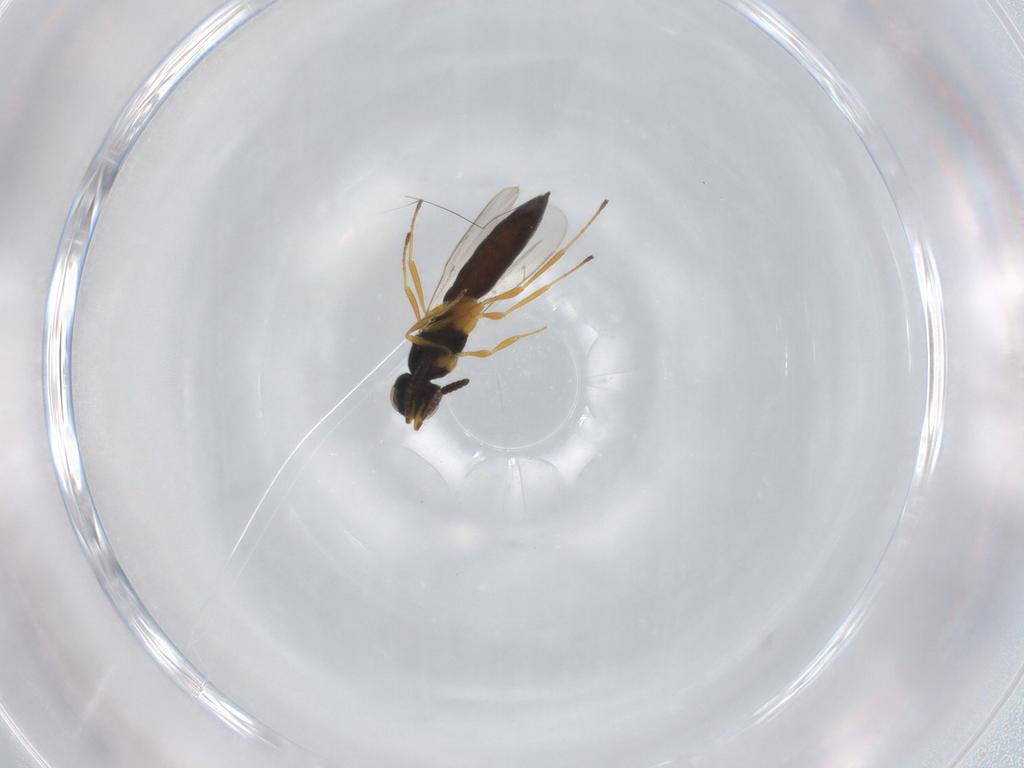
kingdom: Animalia
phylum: Arthropoda
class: Insecta
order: Hymenoptera
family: Scelionidae
